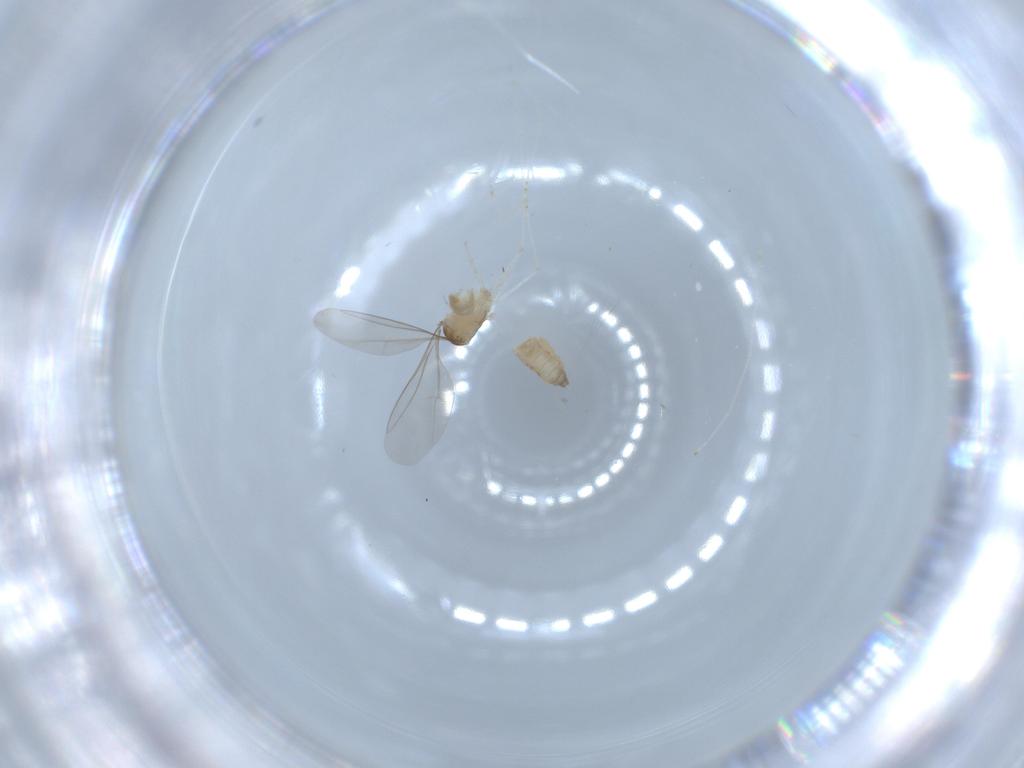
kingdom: Animalia
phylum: Arthropoda
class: Insecta
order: Diptera
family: Cecidomyiidae
